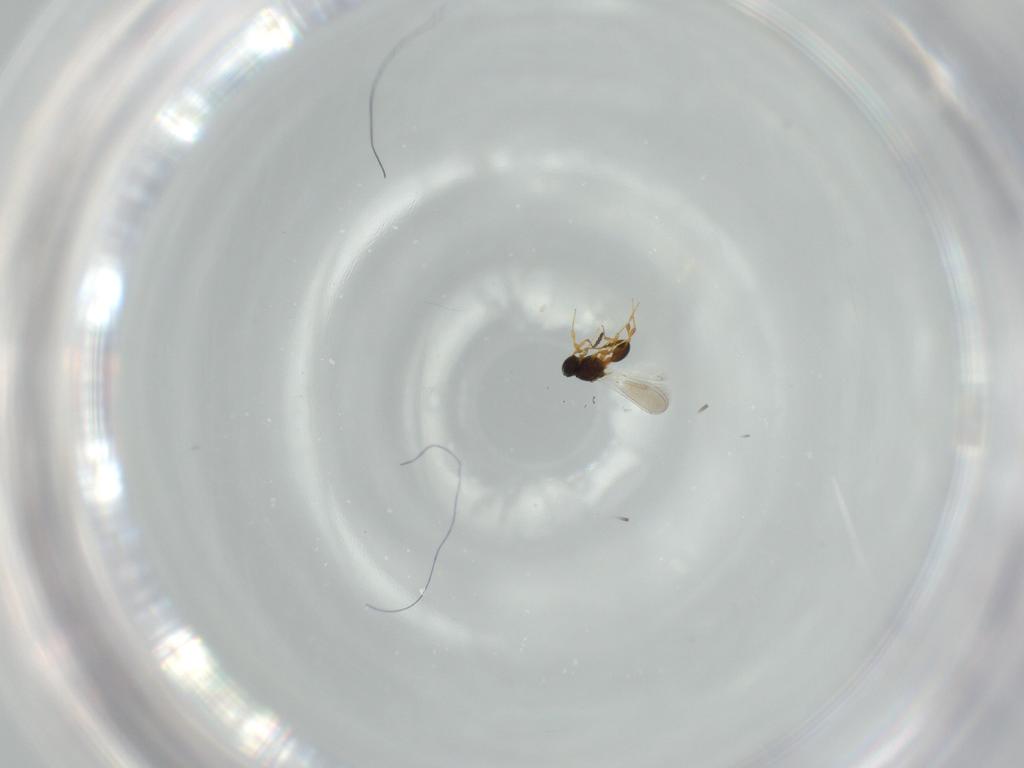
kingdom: Animalia
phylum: Arthropoda
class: Insecta
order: Hymenoptera
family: Platygastridae
